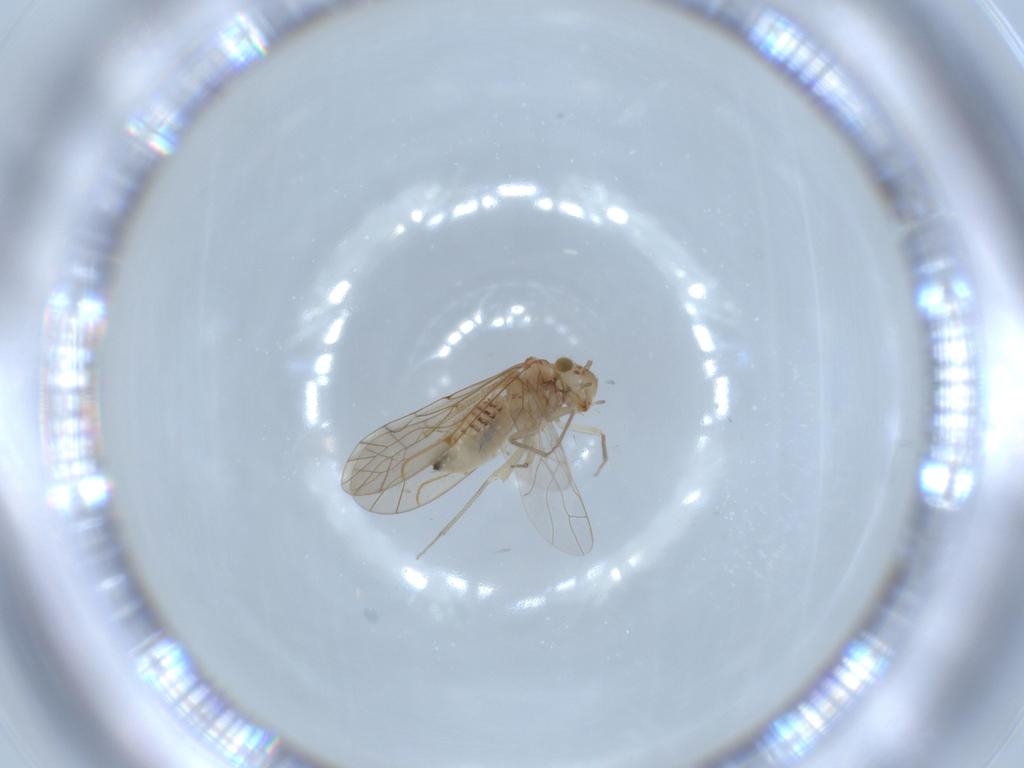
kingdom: Animalia
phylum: Arthropoda
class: Insecta
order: Psocodea
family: Lachesillidae
